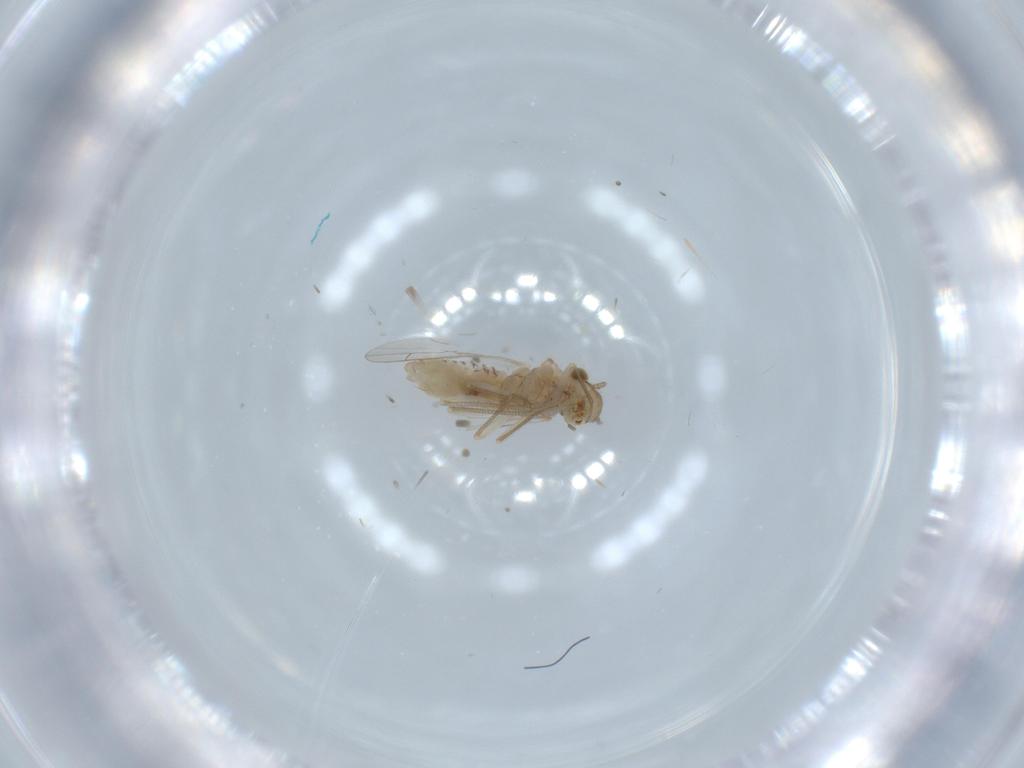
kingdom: Animalia
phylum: Arthropoda
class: Insecta
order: Psocodea
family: Lachesillidae
